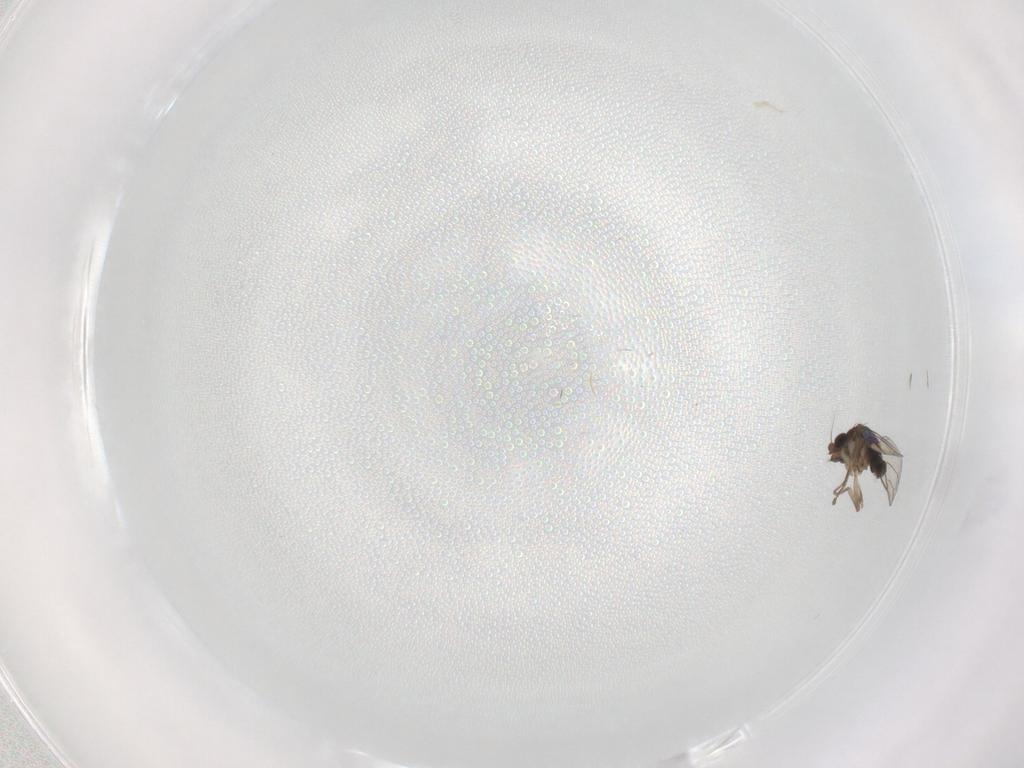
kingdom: Animalia
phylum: Arthropoda
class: Insecta
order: Diptera
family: Phoridae
